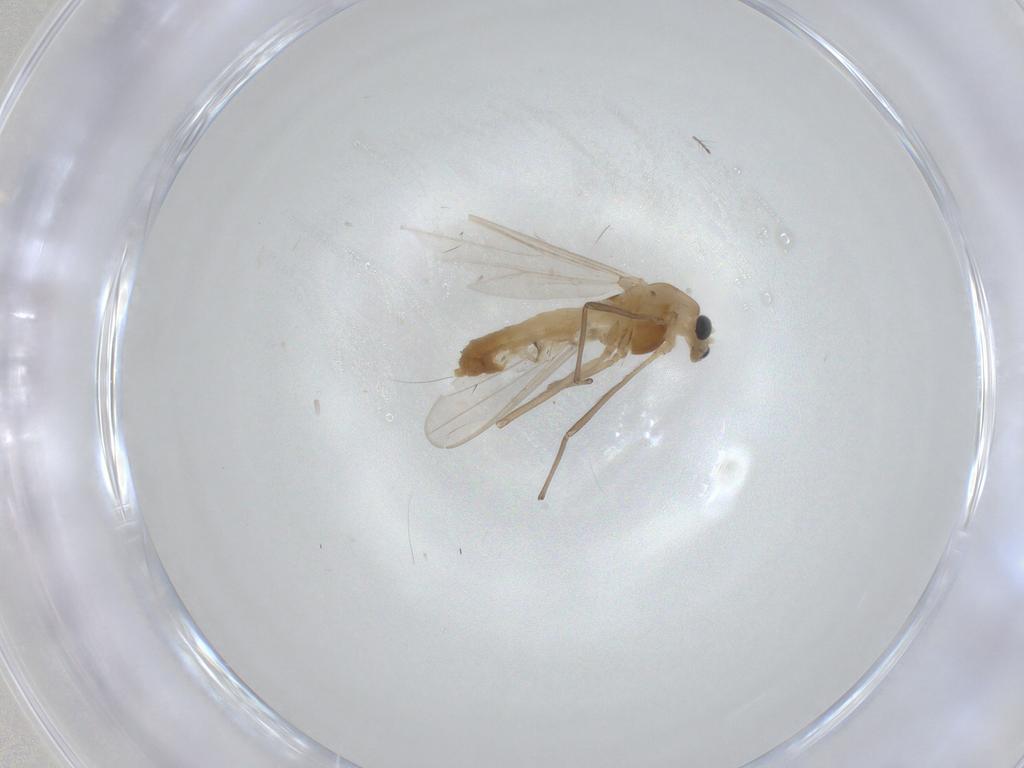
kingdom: Animalia
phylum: Arthropoda
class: Insecta
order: Diptera
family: Chironomidae
